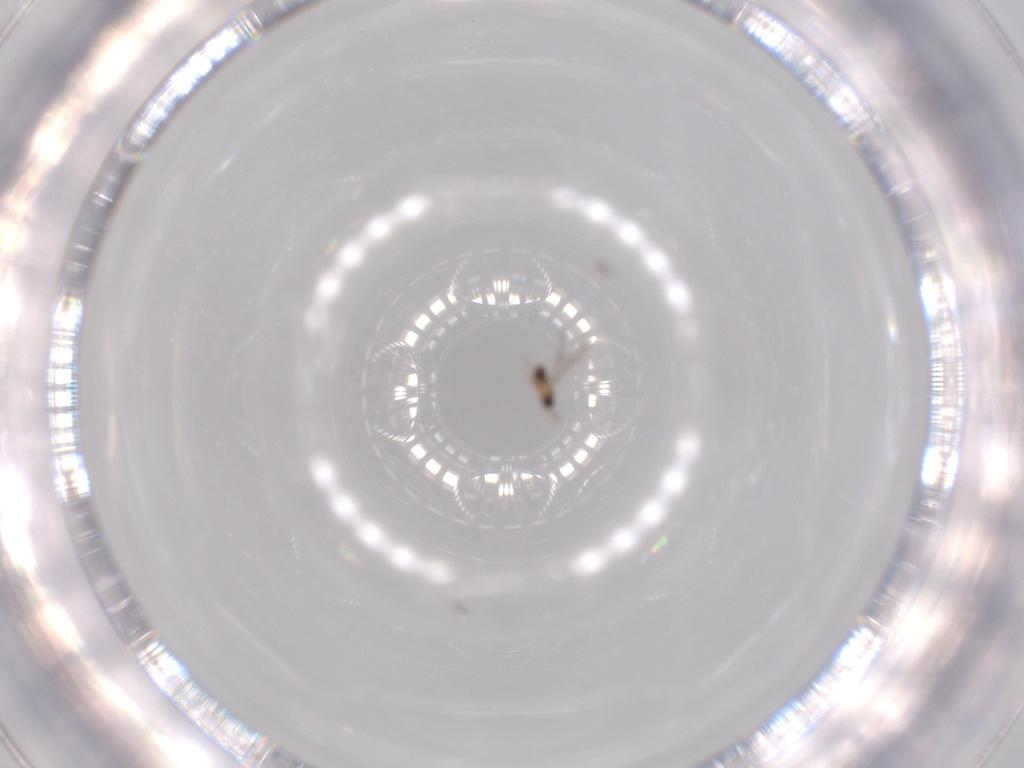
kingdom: Animalia
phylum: Arthropoda
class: Insecta
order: Hymenoptera
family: Mymaridae
